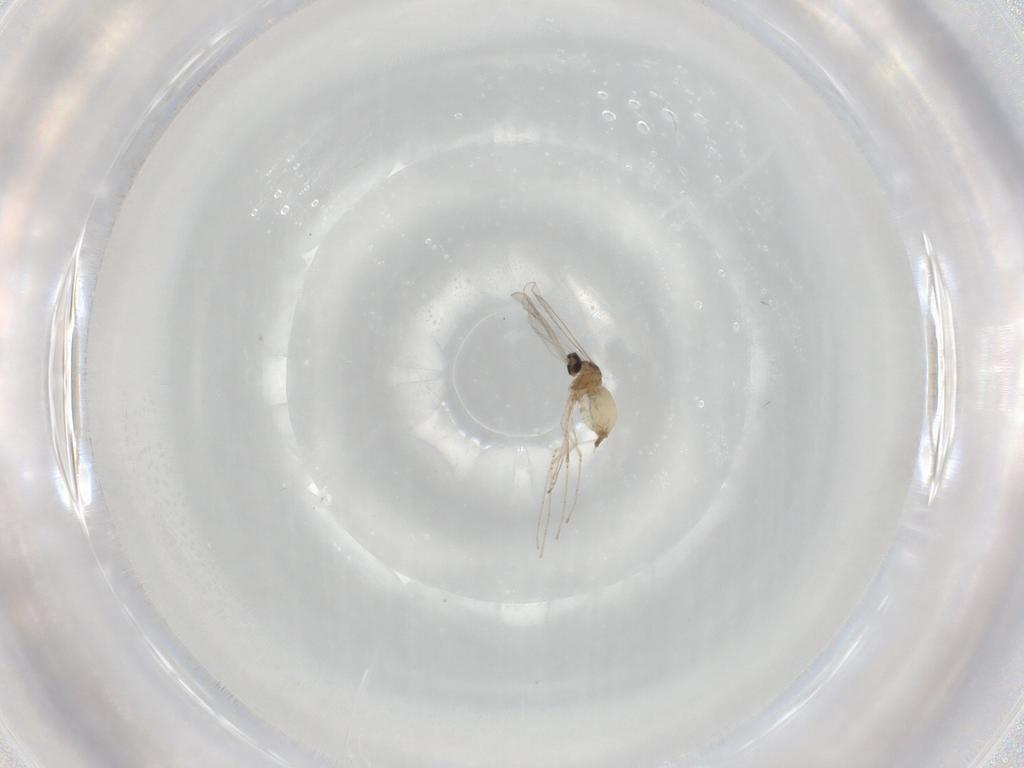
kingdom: Animalia
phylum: Arthropoda
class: Insecta
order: Diptera
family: Cecidomyiidae
